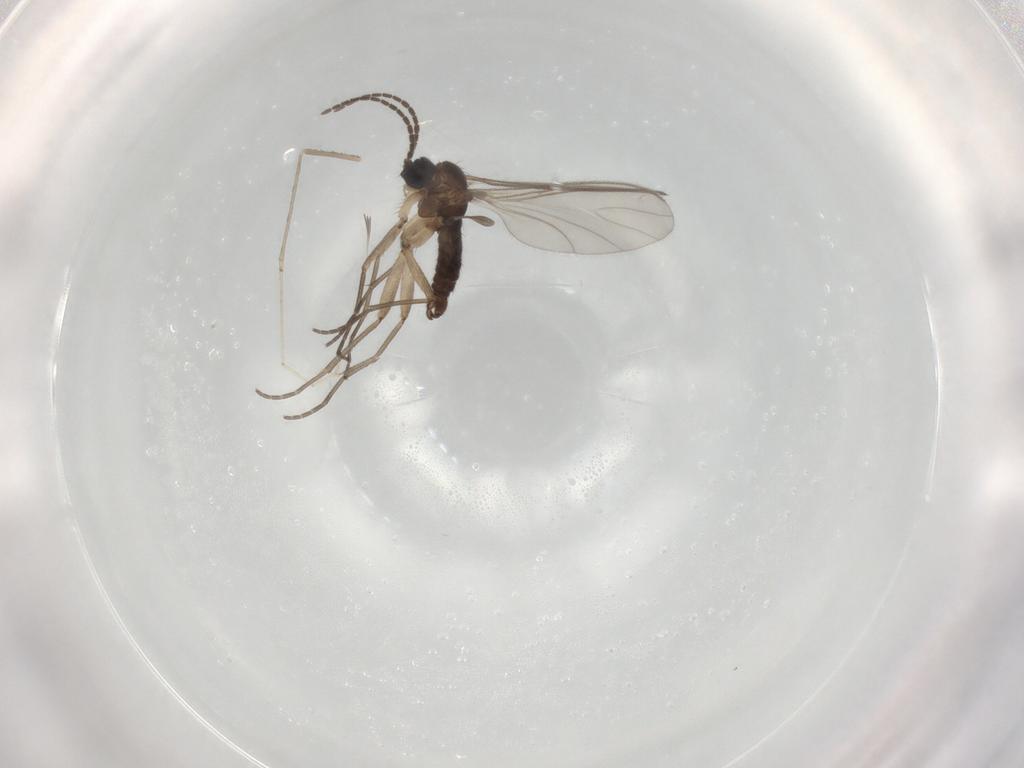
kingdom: Animalia
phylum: Arthropoda
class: Insecta
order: Diptera
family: Sciaridae
